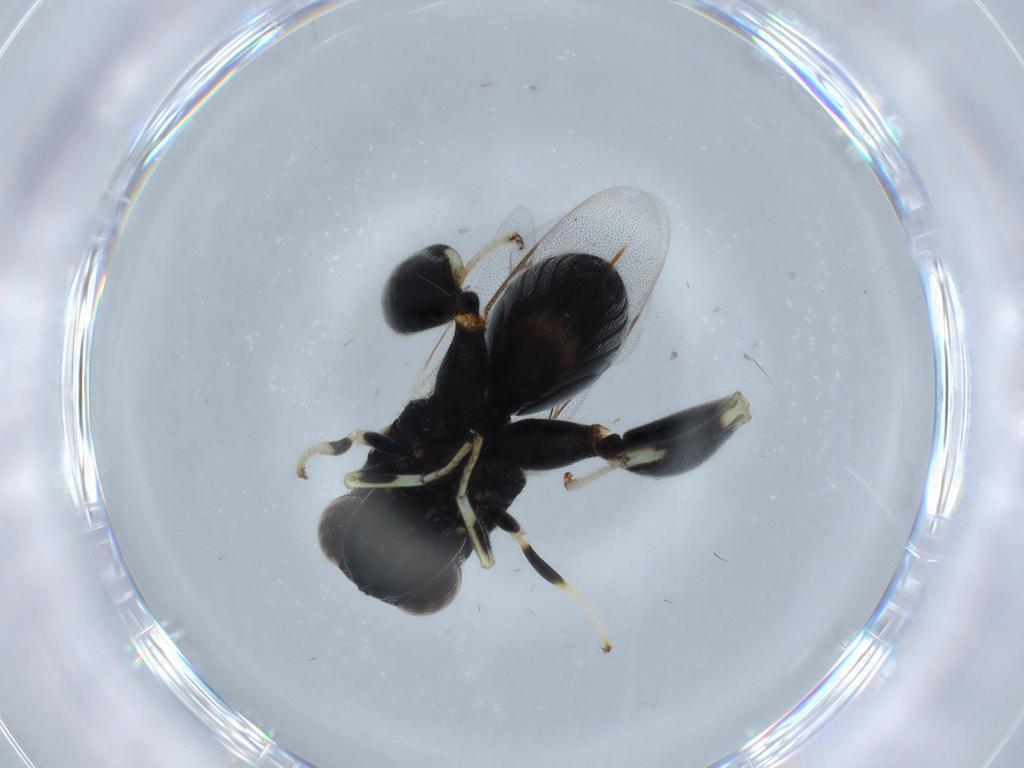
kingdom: Animalia
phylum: Arthropoda
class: Insecta
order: Hymenoptera
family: Figitidae
